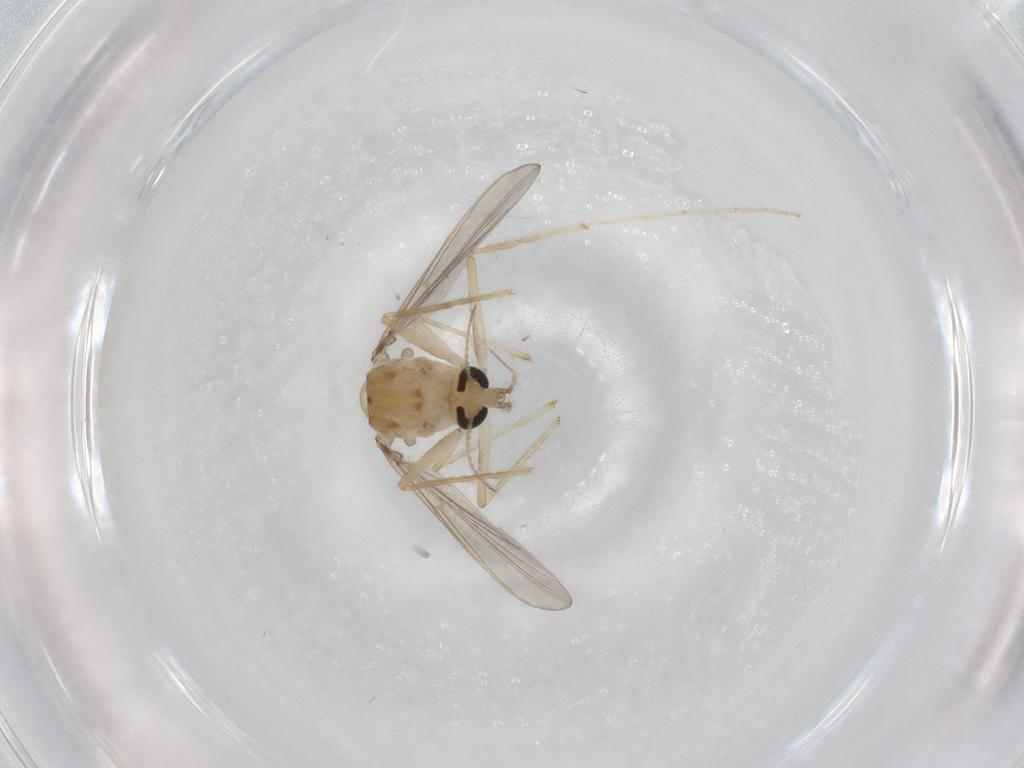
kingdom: Animalia
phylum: Arthropoda
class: Insecta
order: Diptera
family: Chironomidae
